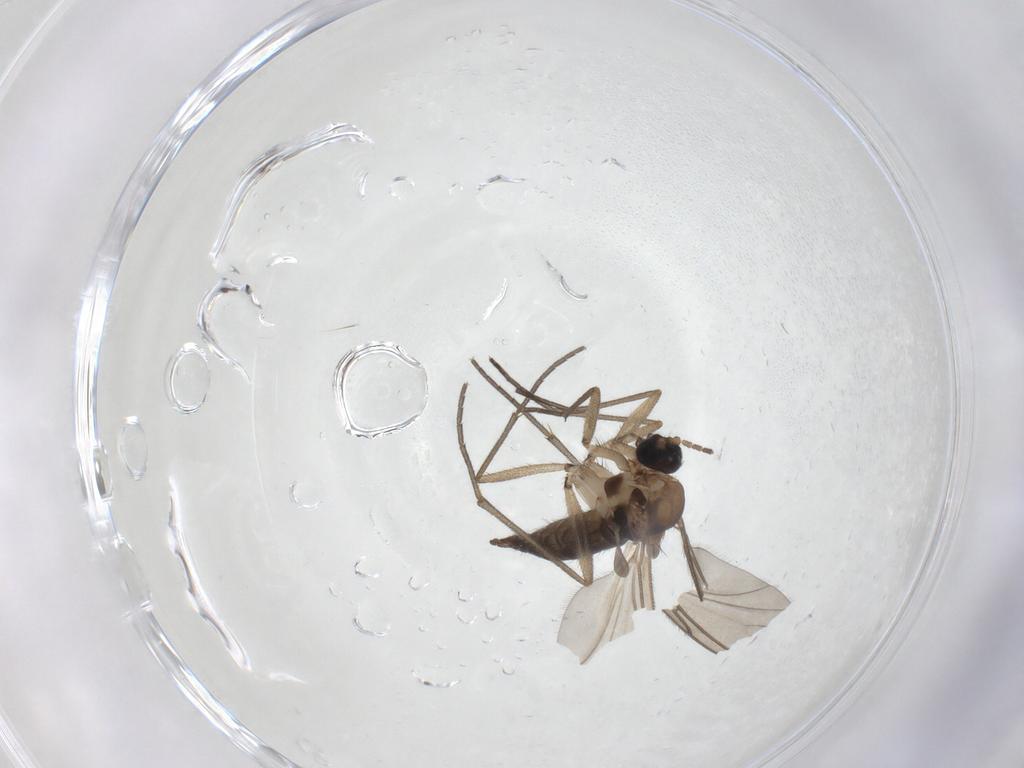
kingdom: Animalia
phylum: Arthropoda
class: Insecta
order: Diptera
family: Sciaridae
